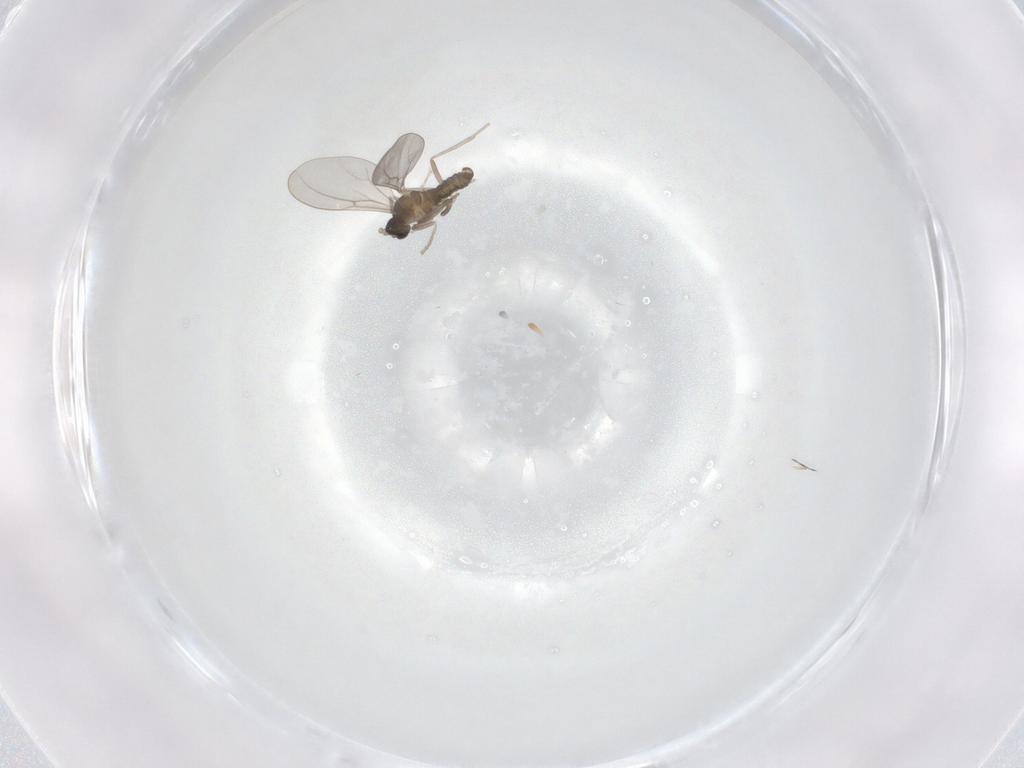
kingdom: Animalia
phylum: Arthropoda
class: Insecta
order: Diptera
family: Cecidomyiidae
